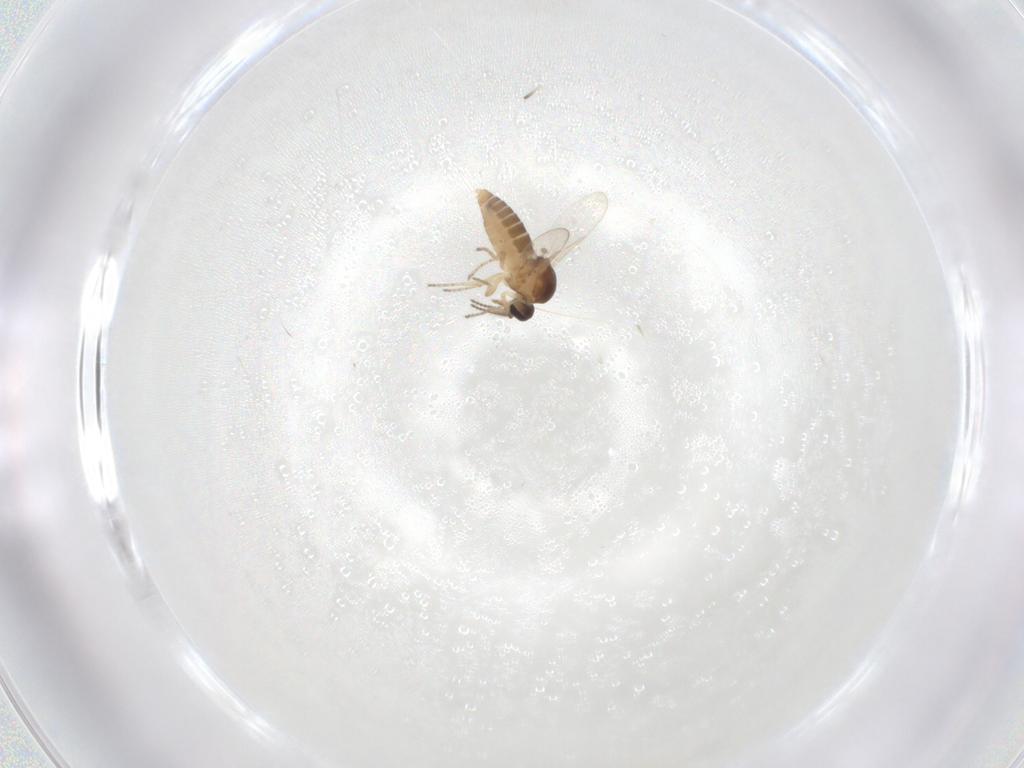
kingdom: Animalia
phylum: Arthropoda
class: Insecta
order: Diptera
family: Ceratopogonidae
